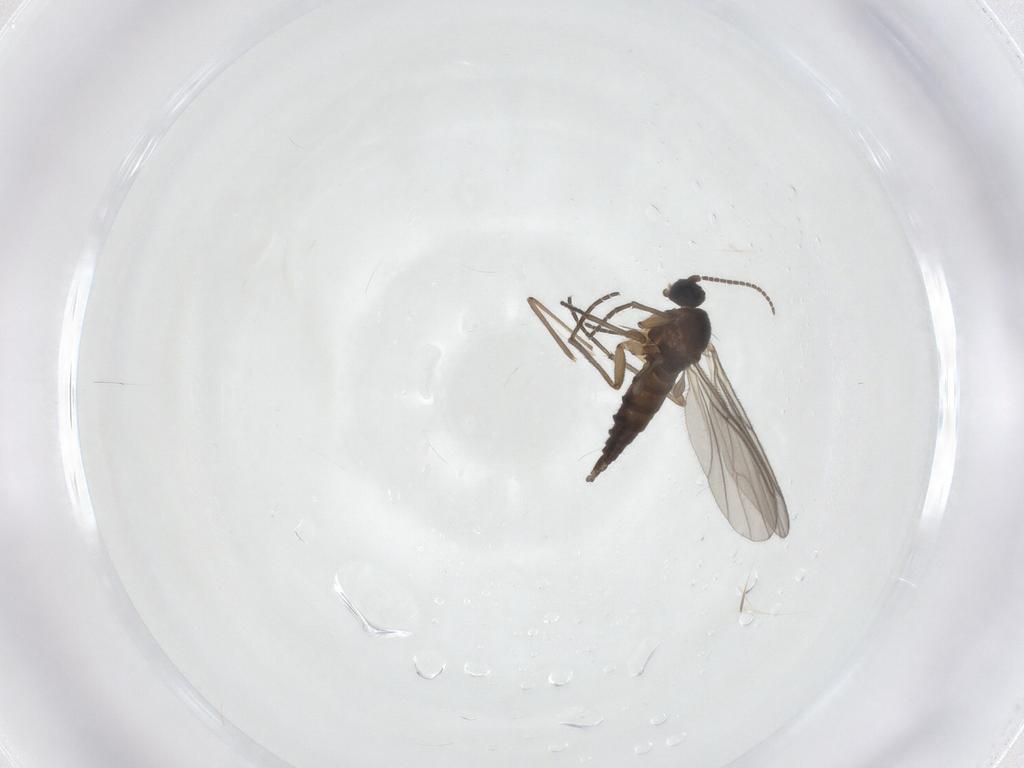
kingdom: Animalia
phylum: Arthropoda
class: Insecta
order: Diptera
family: Sciaridae
